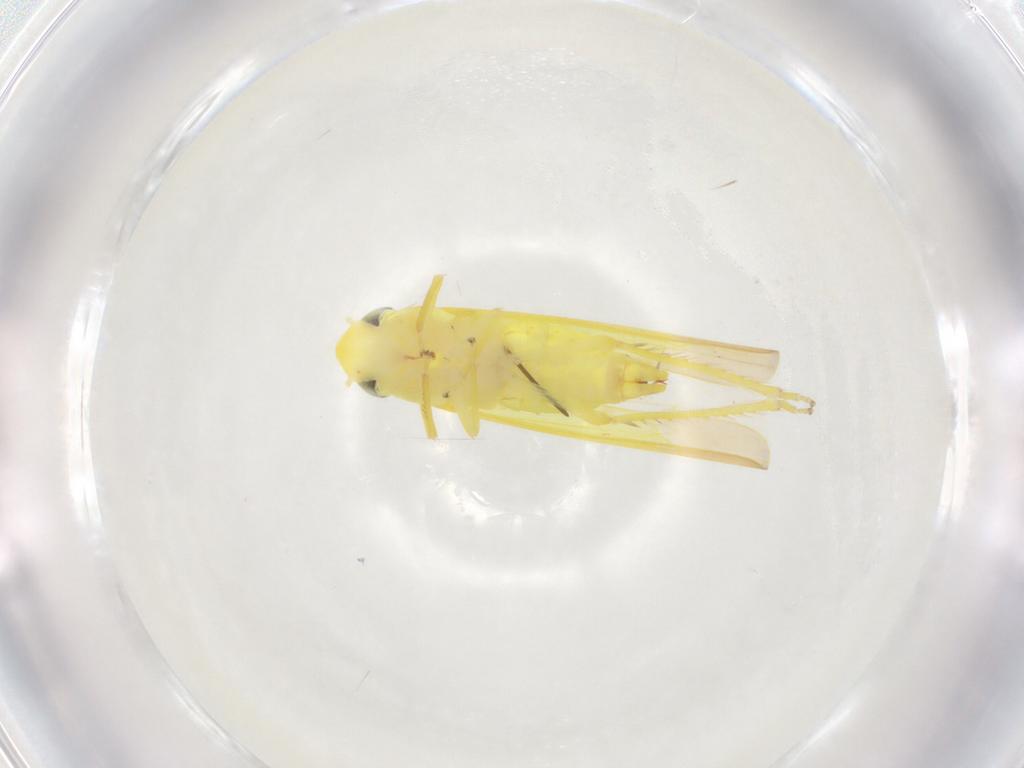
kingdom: Animalia
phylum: Arthropoda
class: Insecta
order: Hemiptera
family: Cicadellidae
